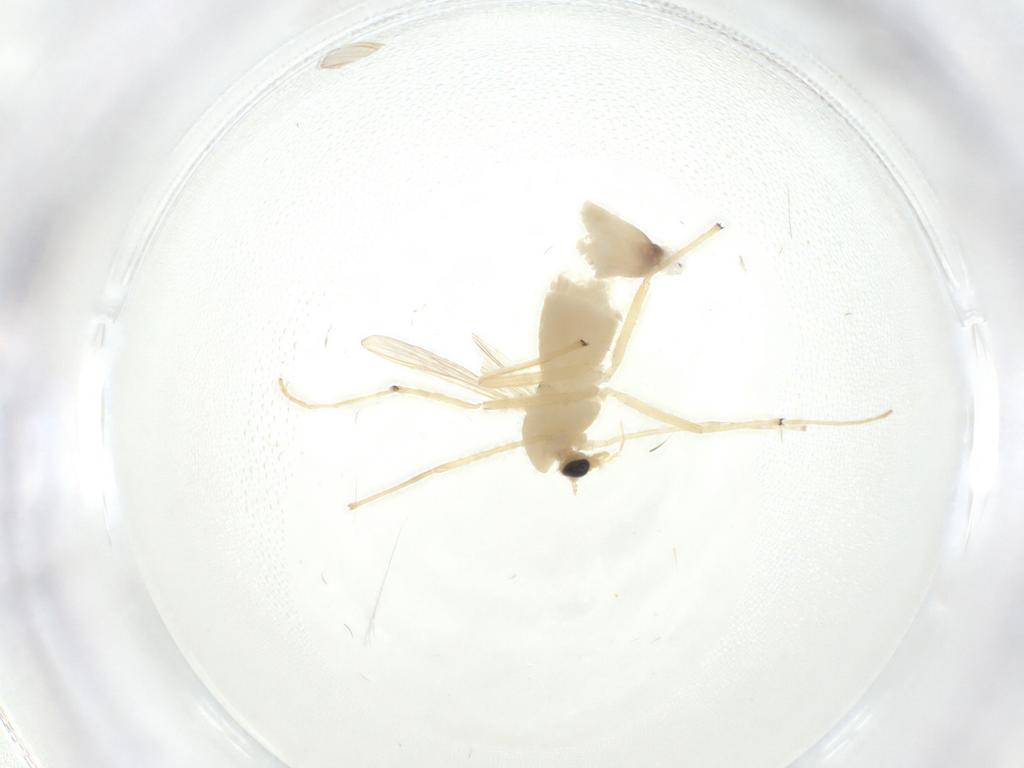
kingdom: Animalia
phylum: Arthropoda
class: Insecta
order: Diptera
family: Chironomidae
